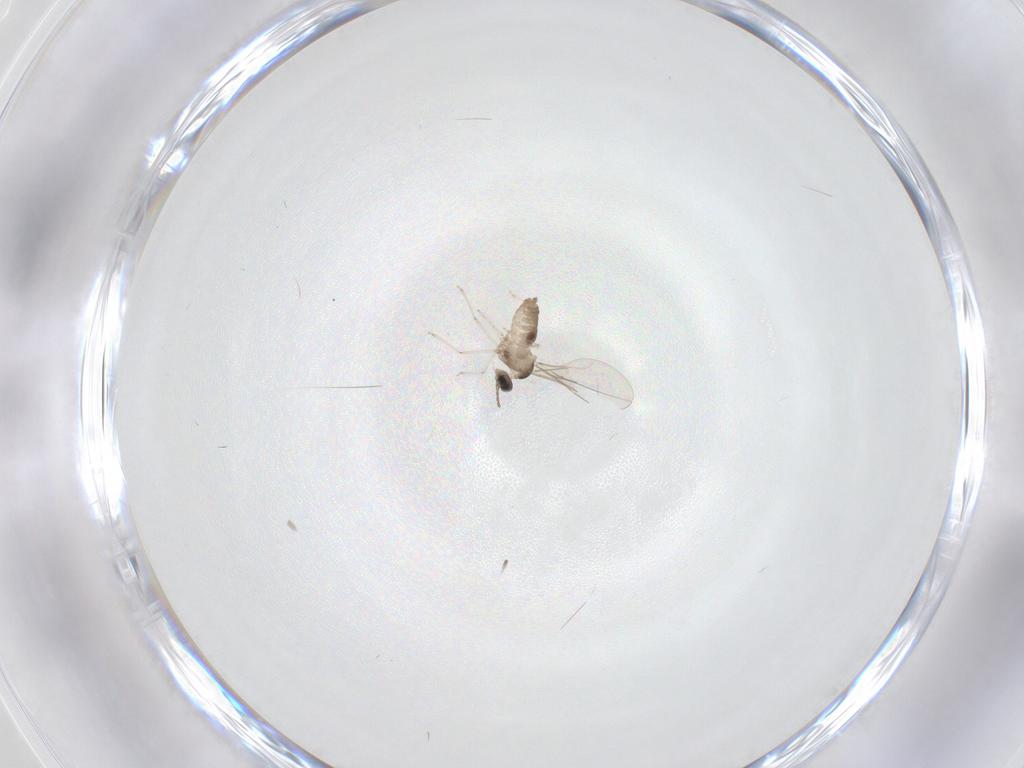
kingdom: Animalia
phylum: Arthropoda
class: Insecta
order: Diptera
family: Cecidomyiidae
